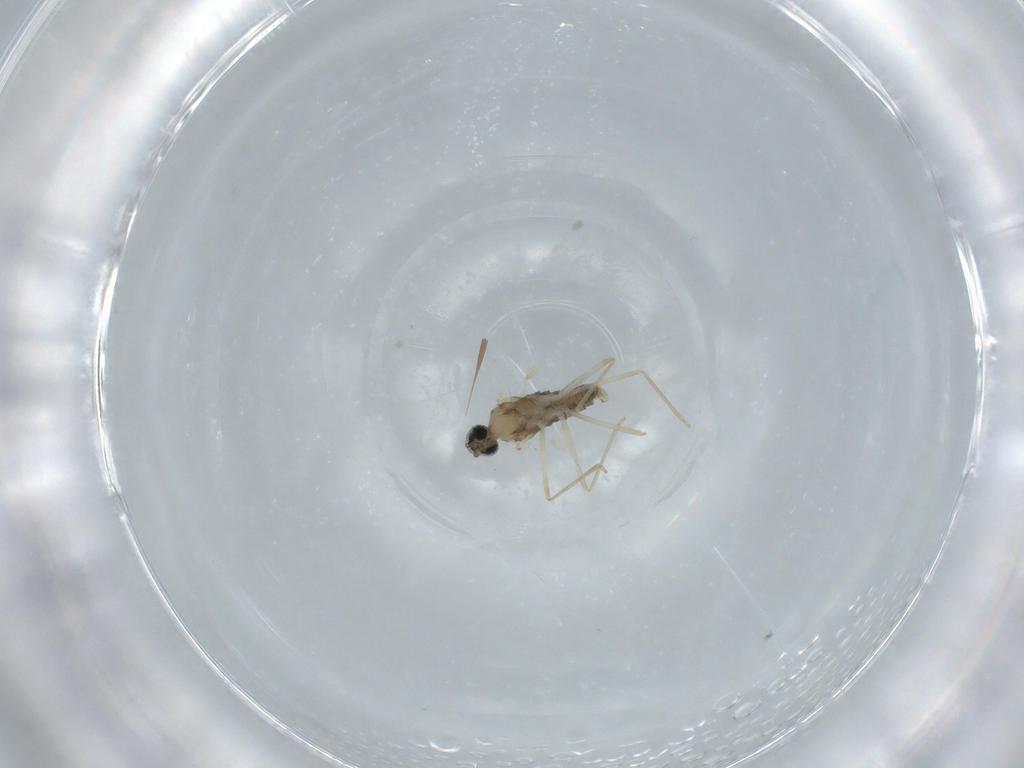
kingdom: Animalia
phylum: Arthropoda
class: Insecta
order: Diptera
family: Cecidomyiidae
